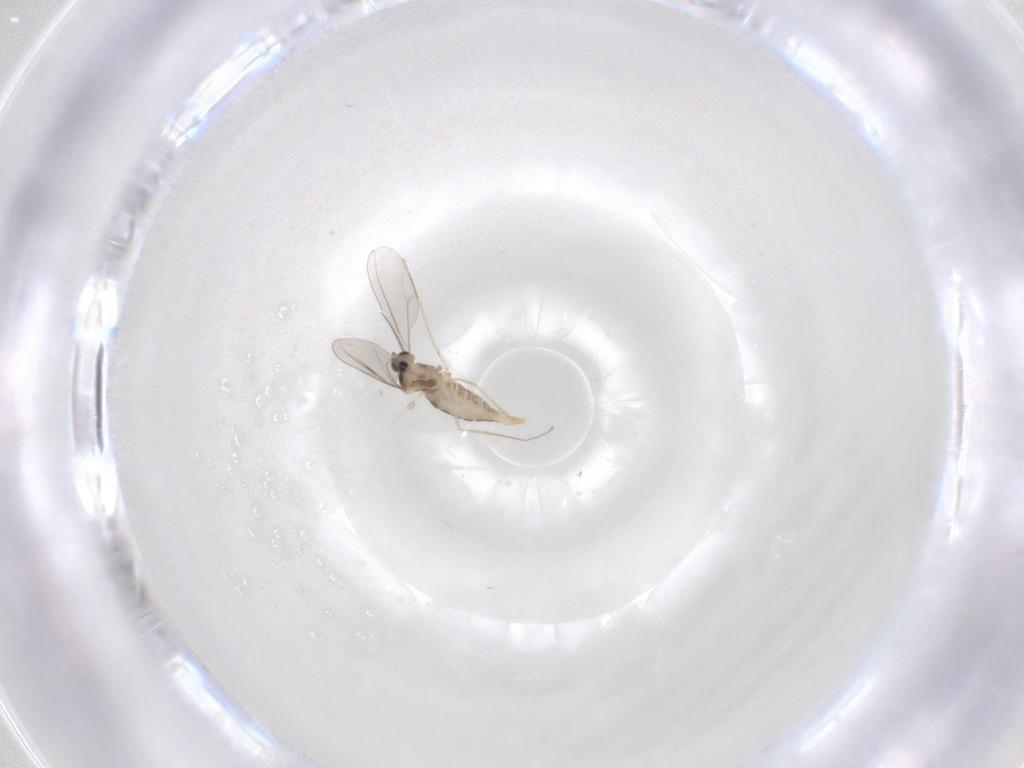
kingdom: Animalia
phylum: Arthropoda
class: Insecta
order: Diptera
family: Cecidomyiidae
